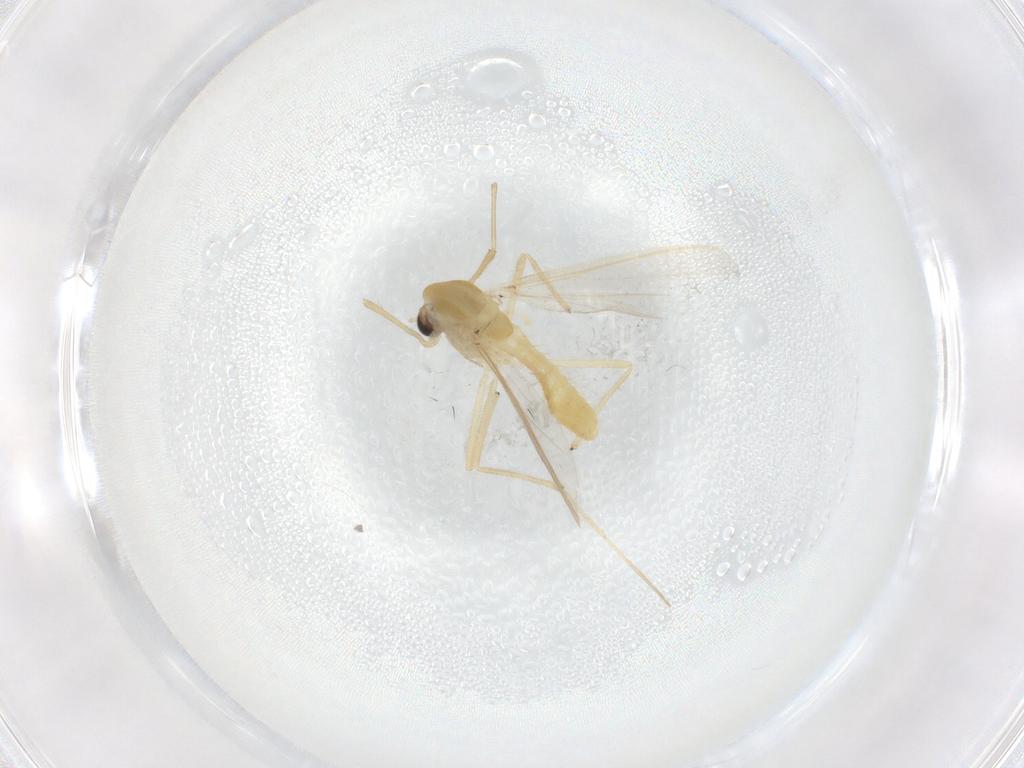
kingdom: Animalia
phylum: Arthropoda
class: Insecta
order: Diptera
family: Chironomidae
